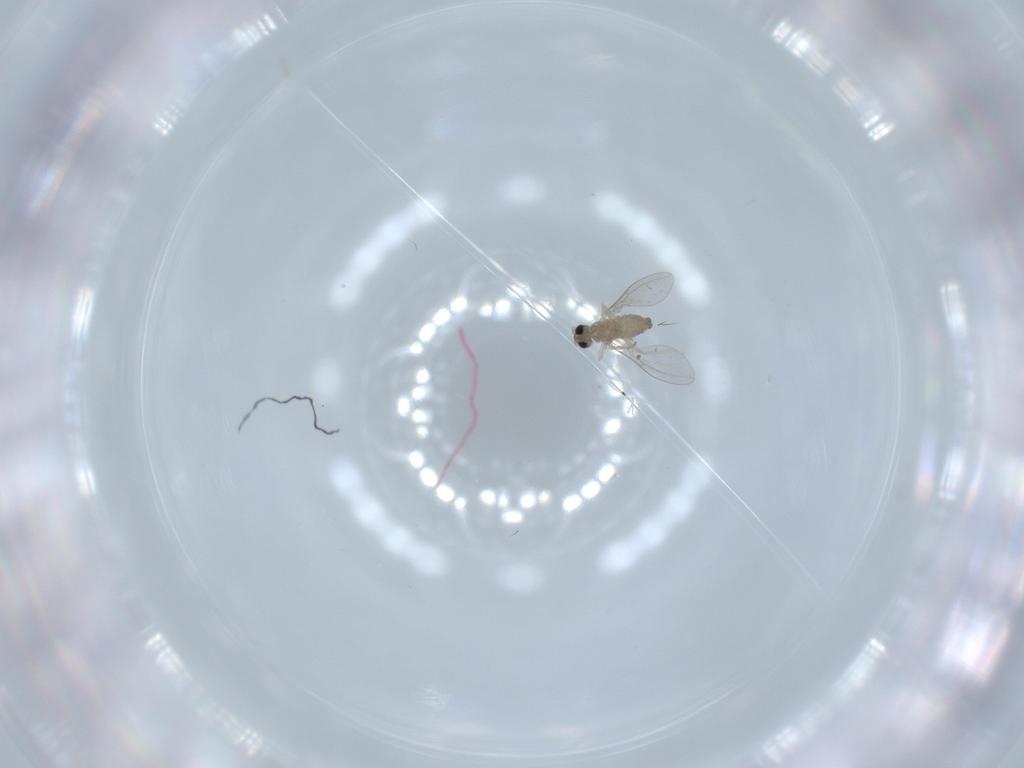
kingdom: Animalia
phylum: Arthropoda
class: Insecta
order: Diptera
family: Cecidomyiidae
